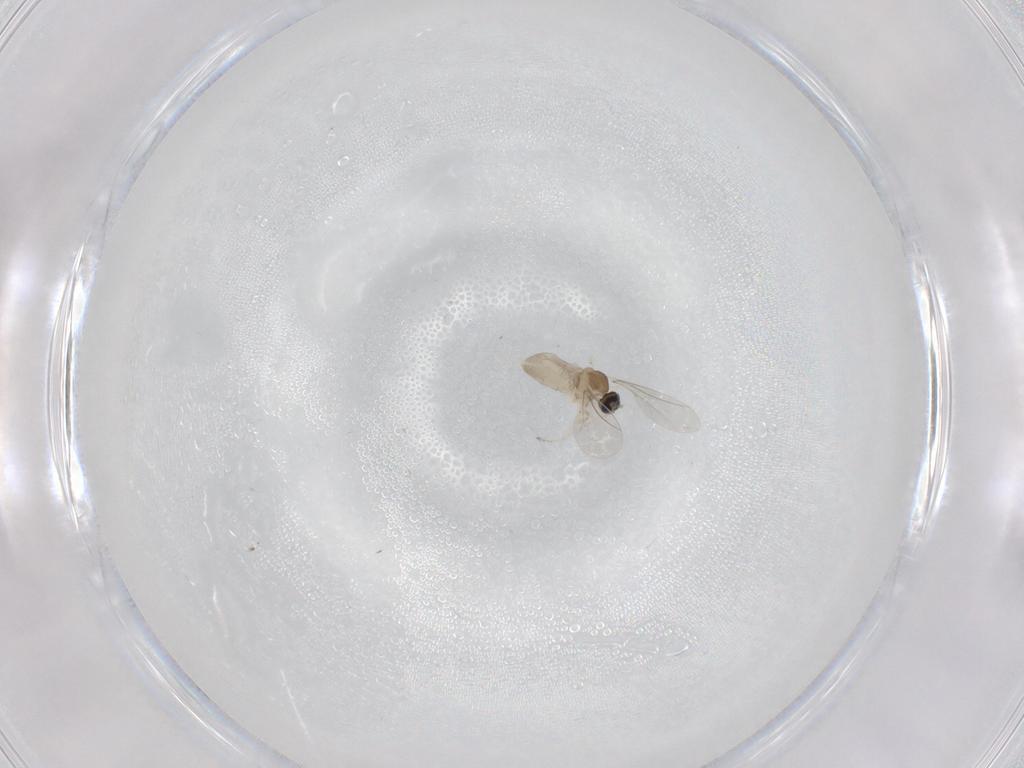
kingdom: Animalia
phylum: Arthropoda
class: Insecta
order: Diptera
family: Cecidomyiidae
